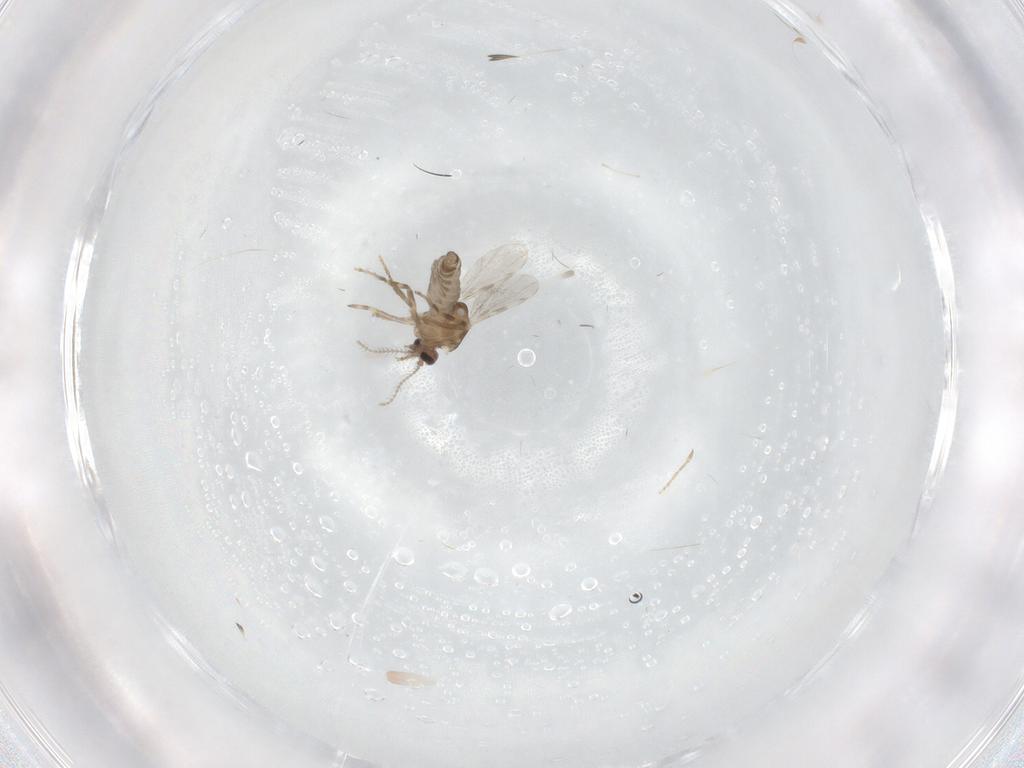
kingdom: Animalia
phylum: Arthropoda
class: Insecta
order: Diptera
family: Ceratopogonidae
